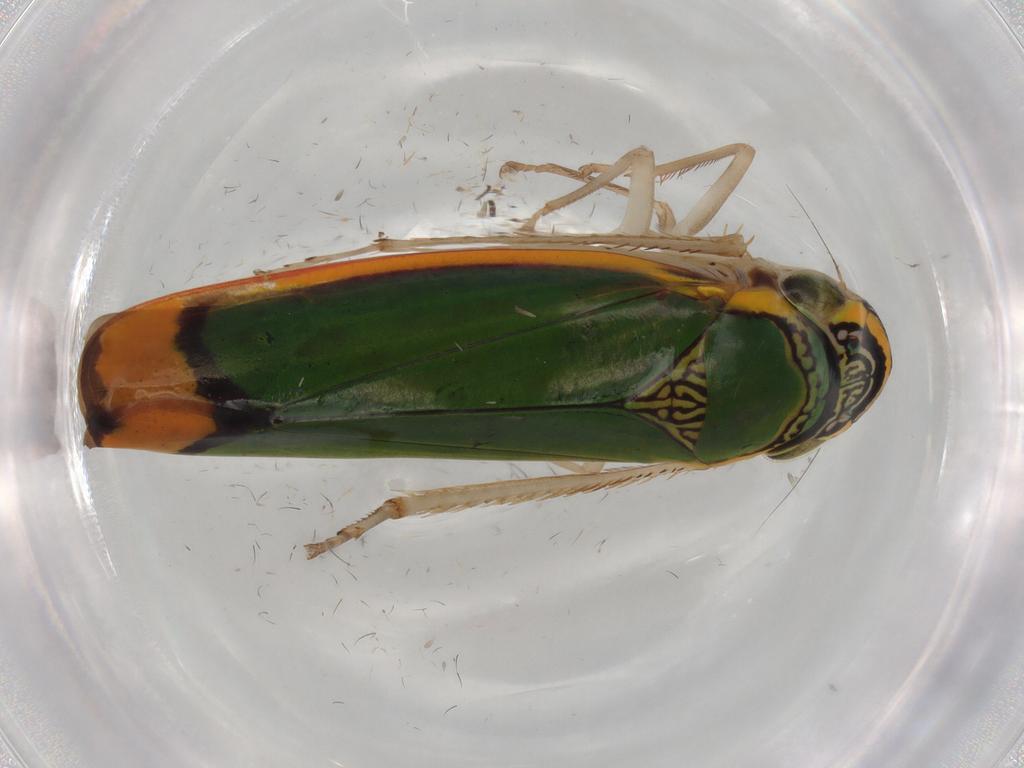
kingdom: Animalia
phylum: Arthropoda
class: Insecta
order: Hemiptera
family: Cicadellidae
